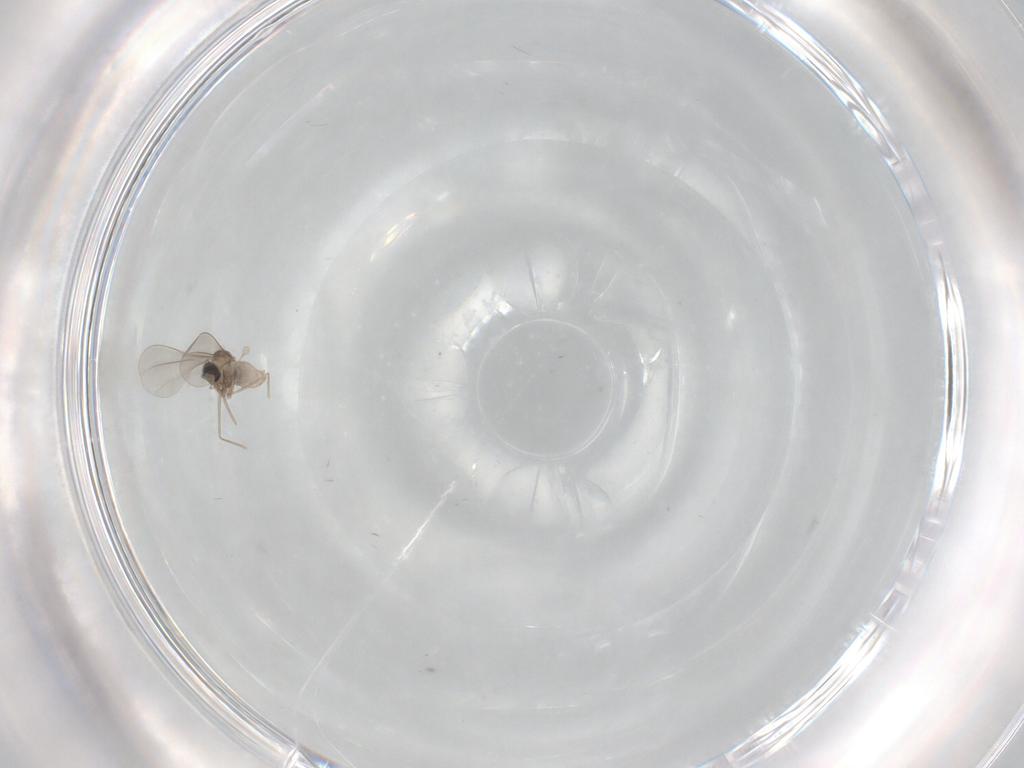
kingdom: Animalia
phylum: Arthropoda
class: Insecta
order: Diptera
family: Cecidomyiidae
